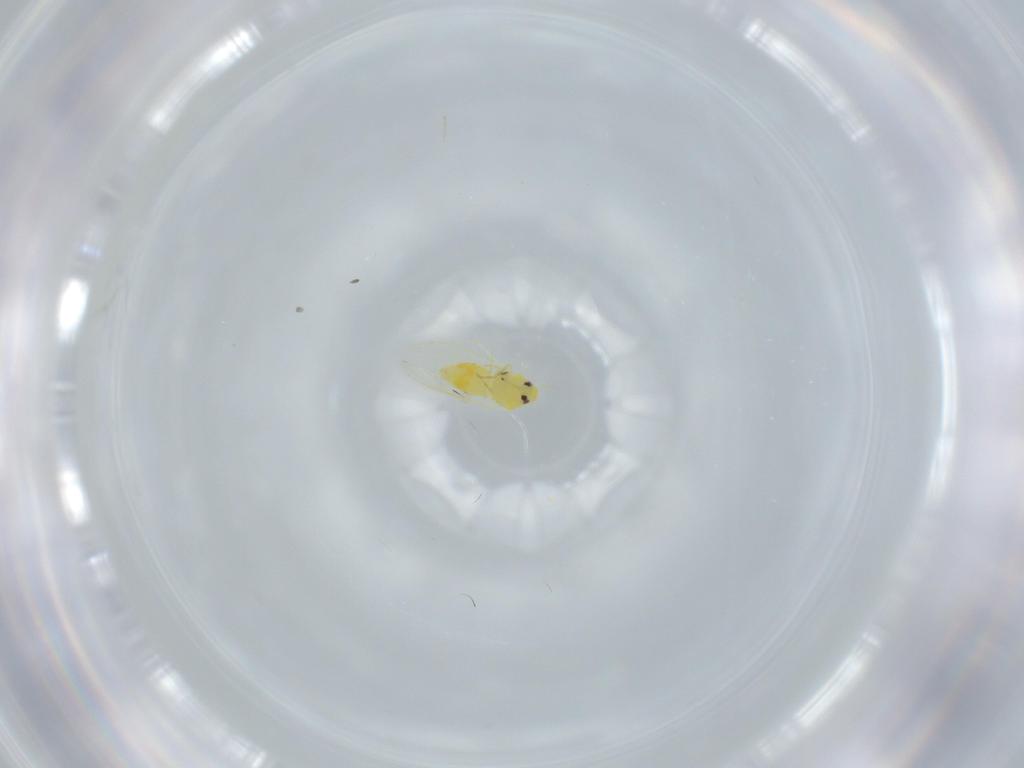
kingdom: Animalia
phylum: Arthropoda
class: Insecta
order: Hemiptera
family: Aleyrodidae
